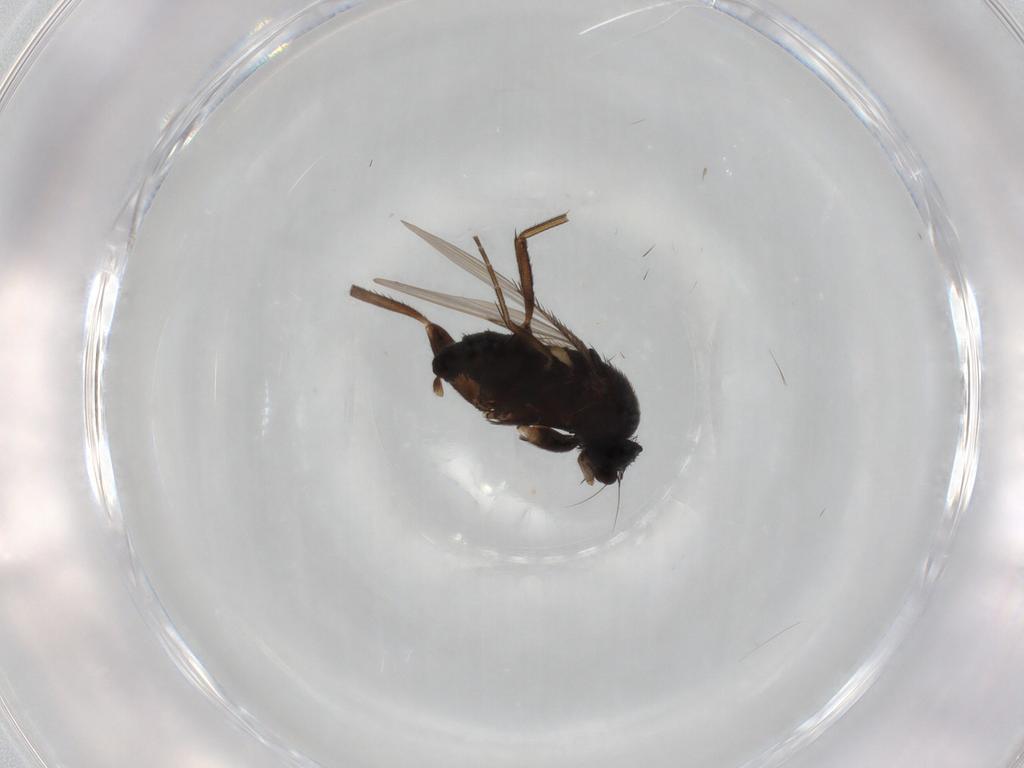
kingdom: Animalia
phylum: Arthropoda
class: Insecta
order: Diptera
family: Phoridae
